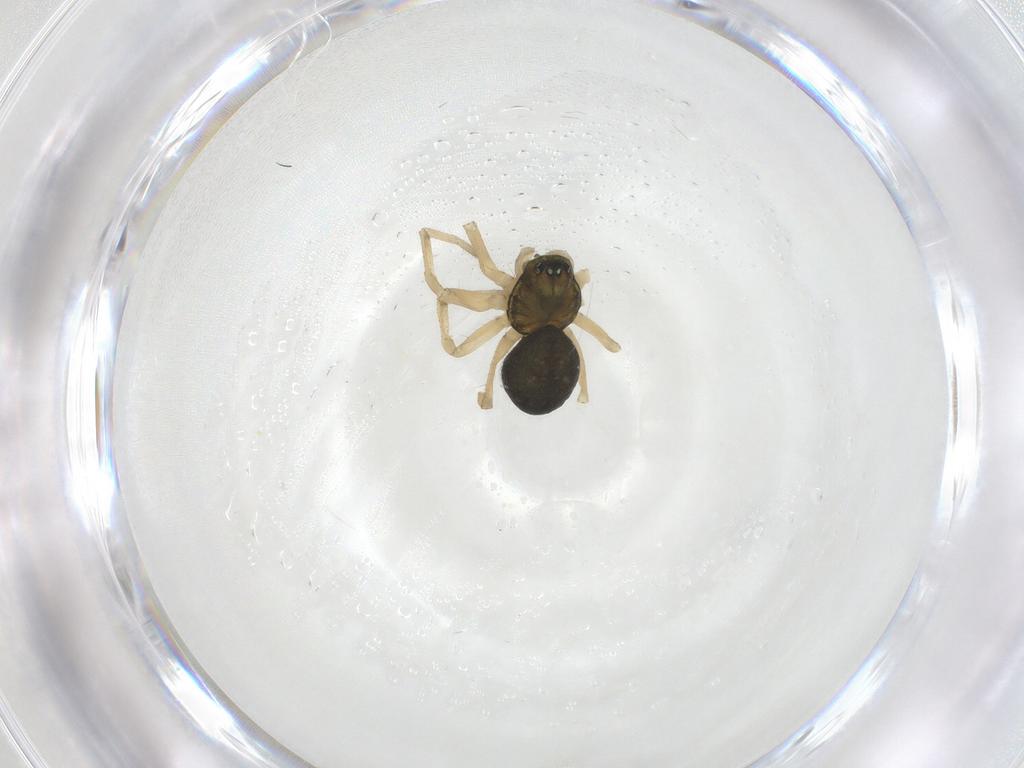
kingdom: Animalia
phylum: Arthropoda
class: Arachnida
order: Araneae
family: Linyphiidae
